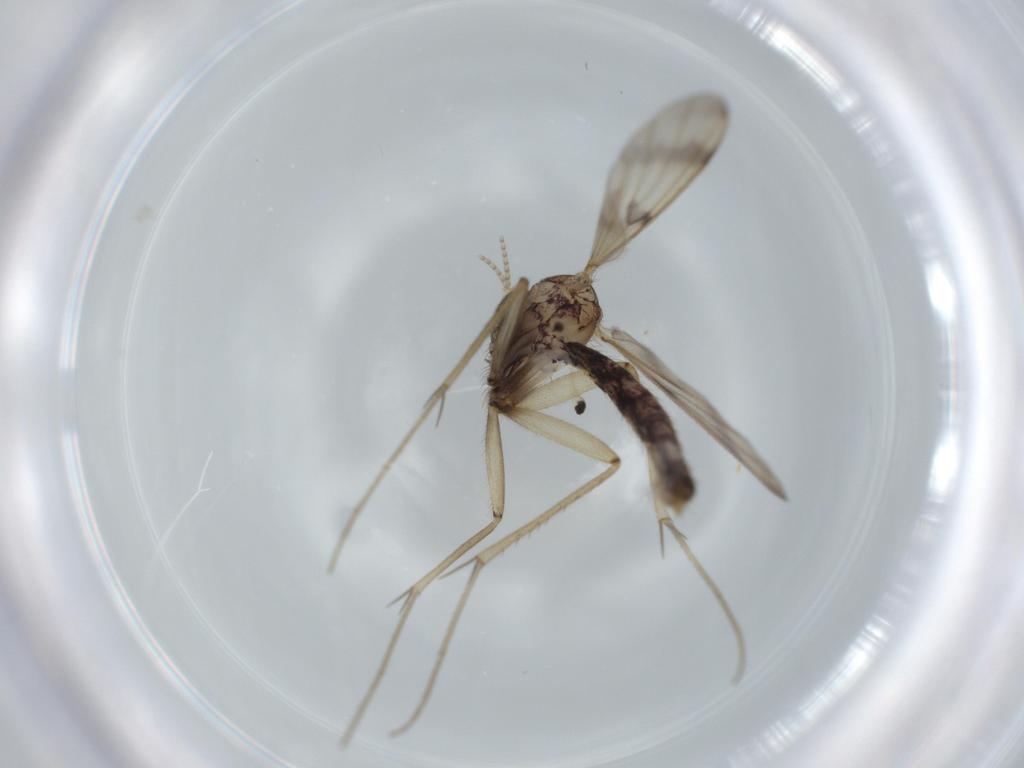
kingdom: Animalia
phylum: Arthropoda
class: Insecta
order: Diptera
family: Mycetophilidae
